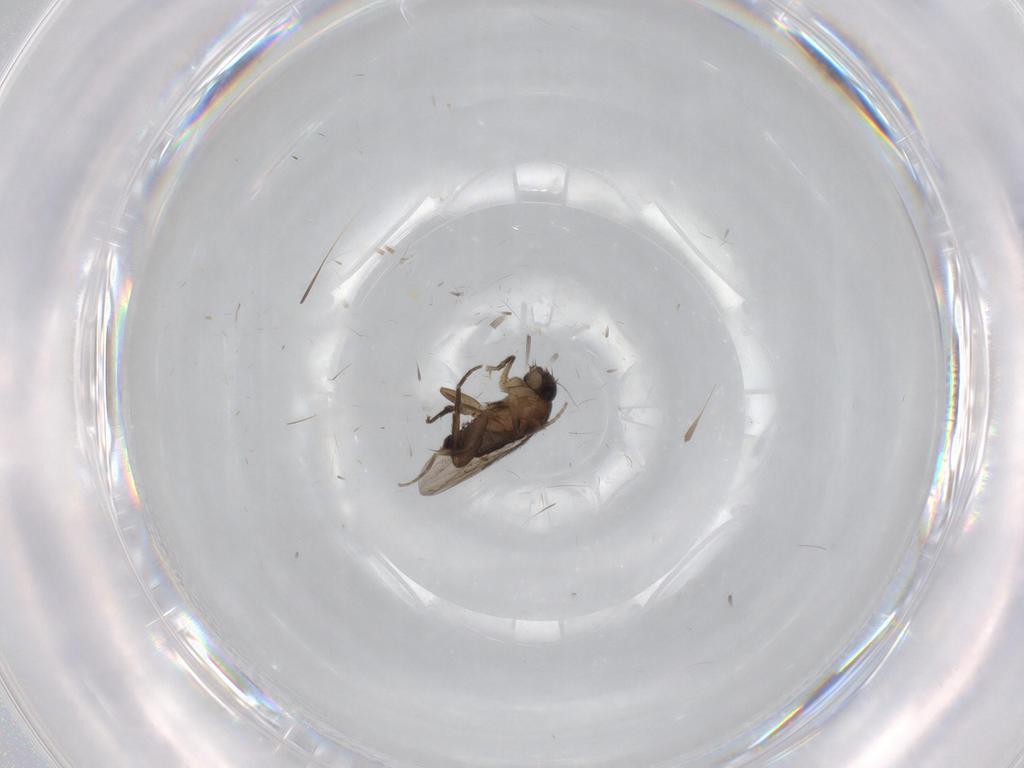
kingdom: Animalia
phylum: Arthropoda
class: Insecta
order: Diptera
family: Phoridae
